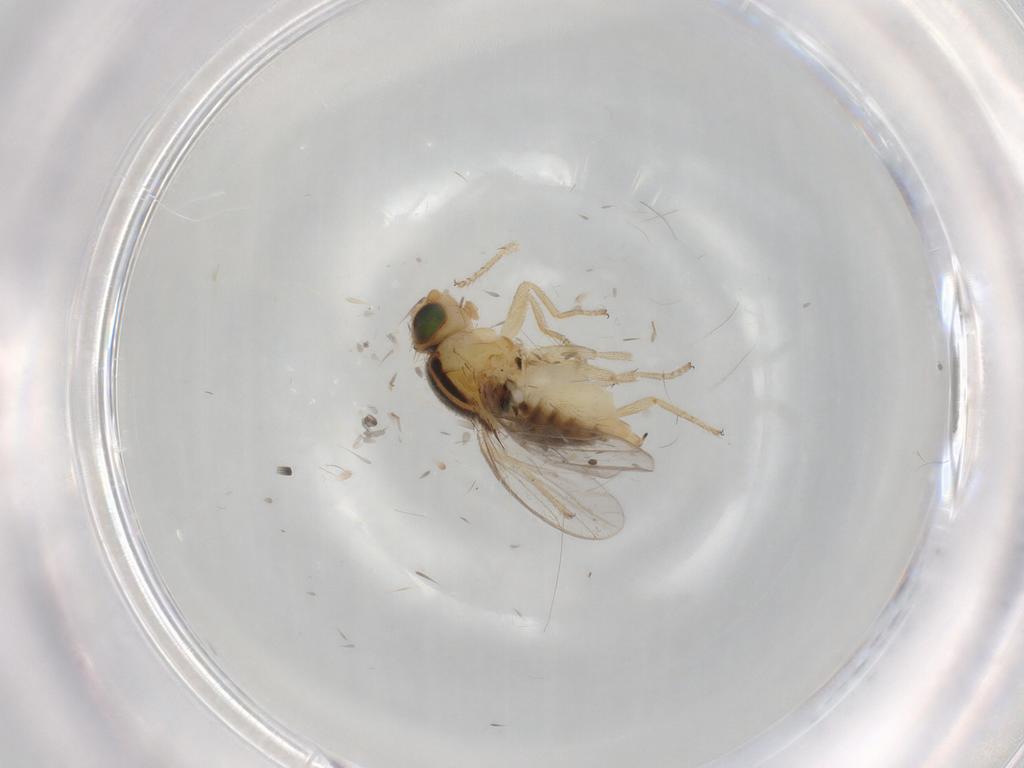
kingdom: Animalia
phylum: Arthropoda
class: Insecta
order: Diptera
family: Chloropidae
